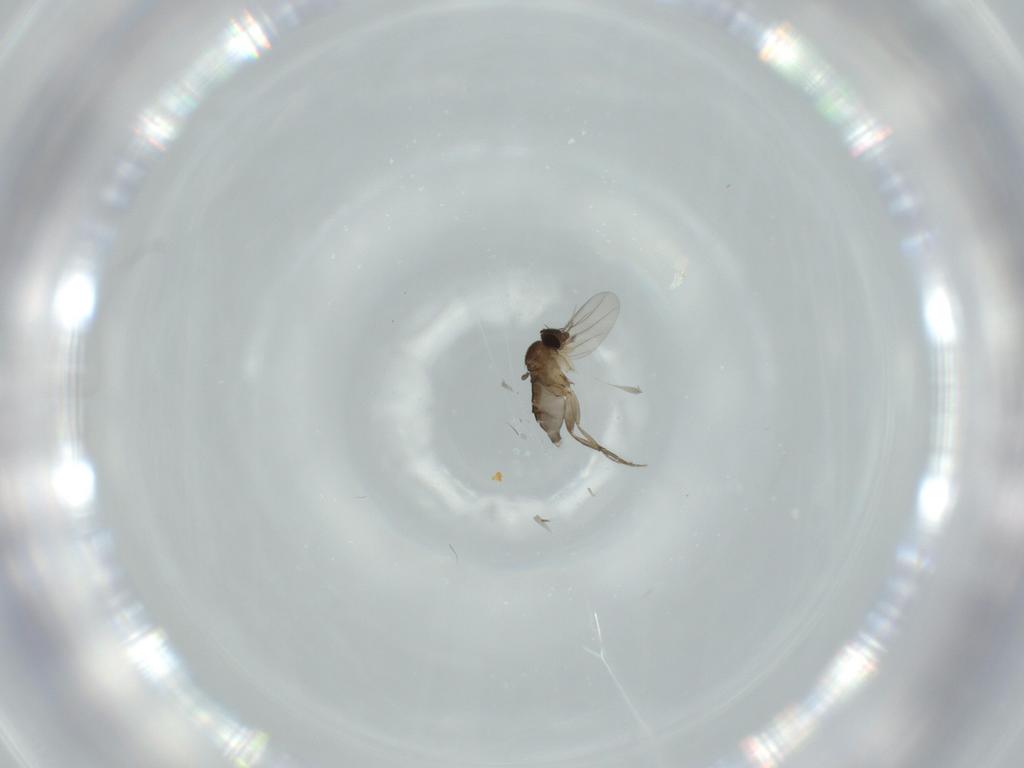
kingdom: Animalia
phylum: Arthropoda
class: Insecta
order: Diptera
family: Phoridae
